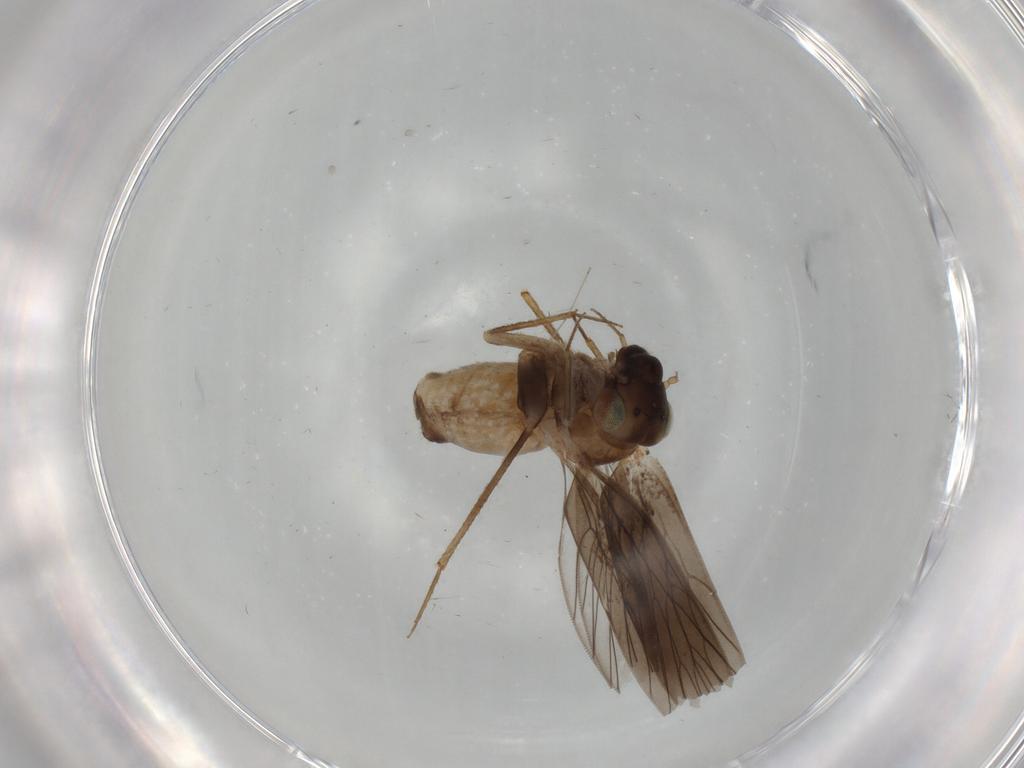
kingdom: Animalia
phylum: Arthropoda
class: Insecta
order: Psocodea
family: Lepidopsocidae
